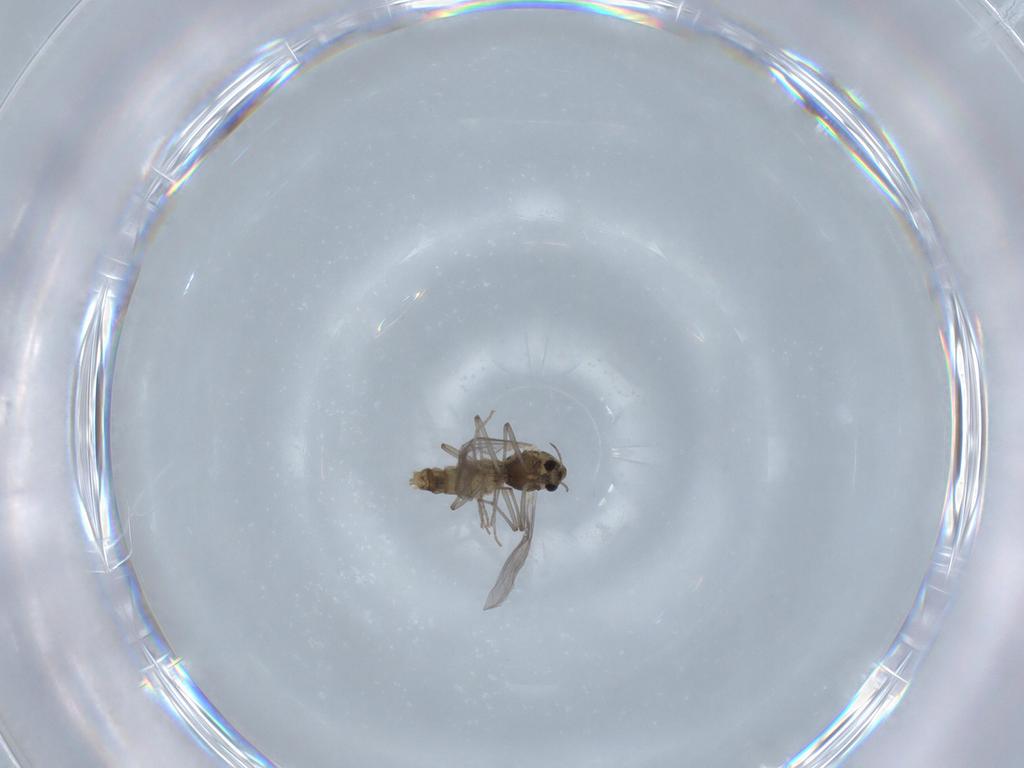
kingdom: Animalia
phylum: Arthropoda
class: Insecta
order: Diptera
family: Chironomidae
